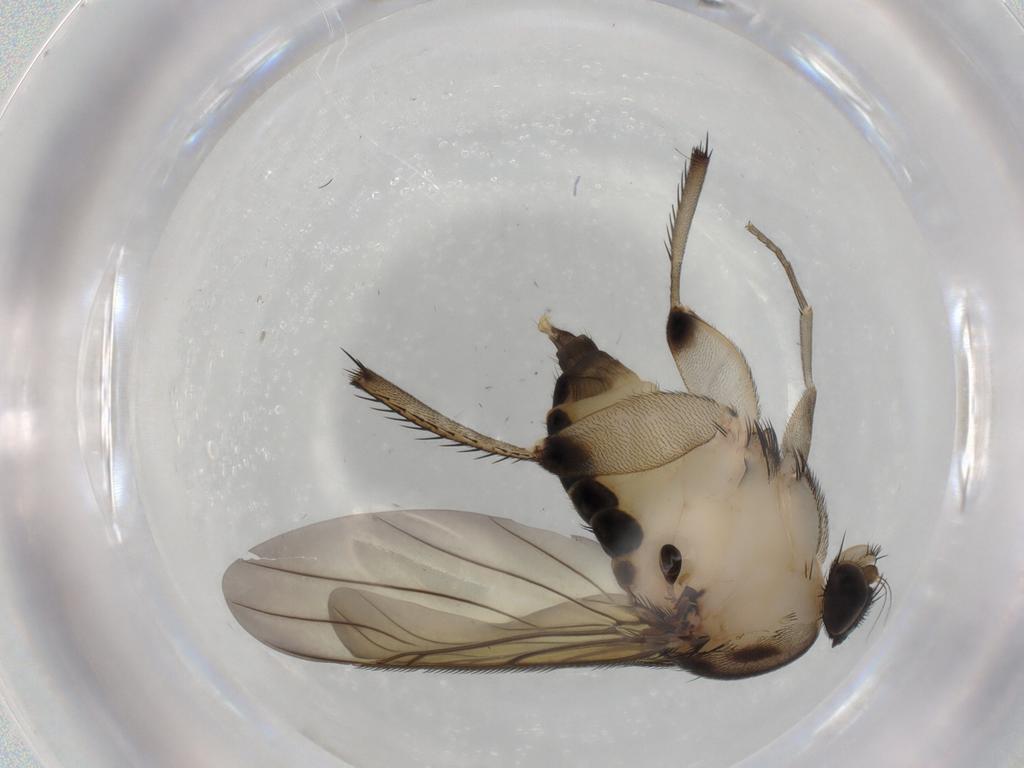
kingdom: Animalia
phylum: Arthropoda
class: Insecta
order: Diptera
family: Phoridae
